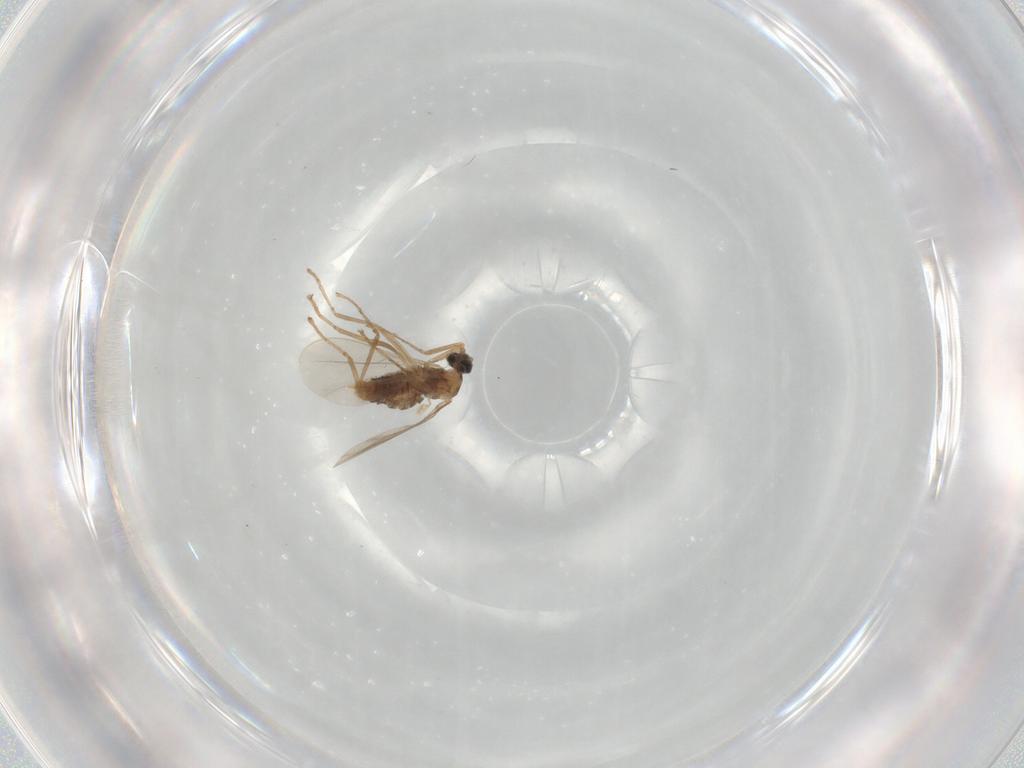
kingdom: Animalia
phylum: Arthropoda
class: Insecta
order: Diptera
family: Cecidomyiidae
